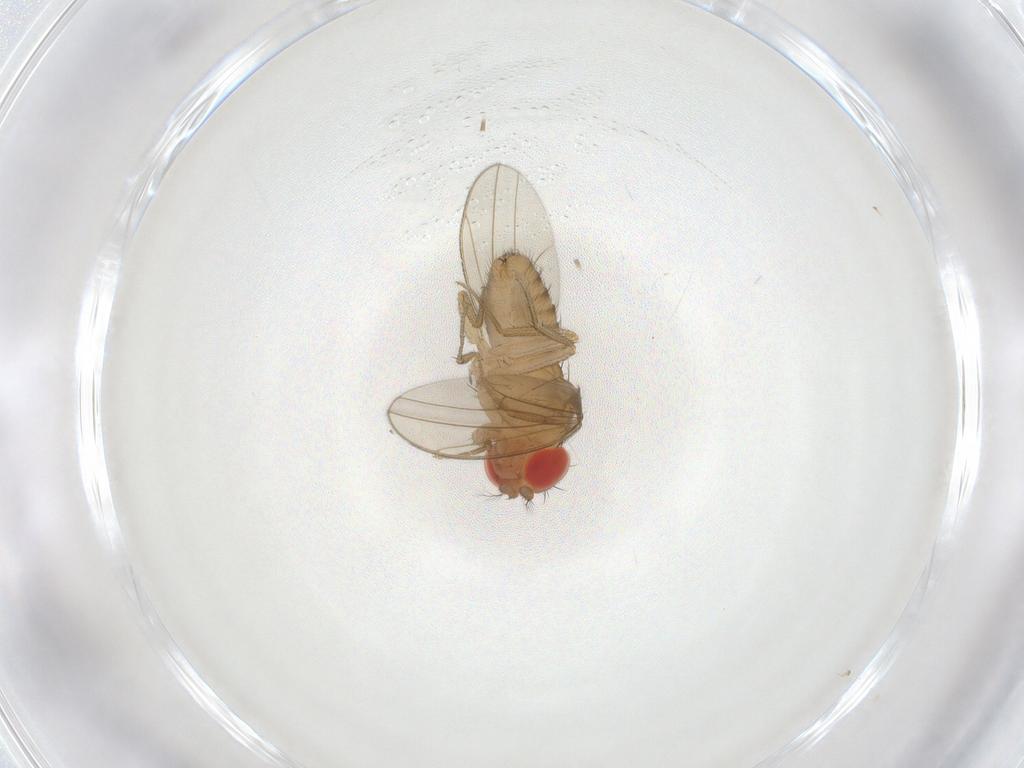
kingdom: Animalia
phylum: Arthropoda
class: Insecta
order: Diptera
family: Drosophilidae
